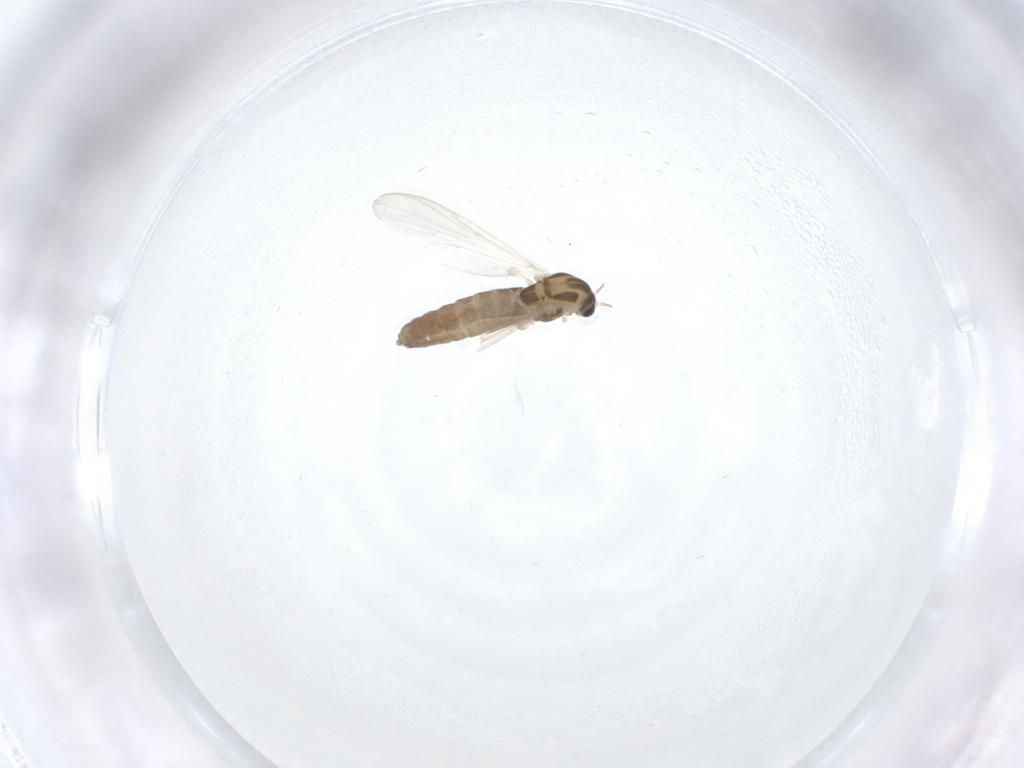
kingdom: Animalia
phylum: Arthropoda
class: Insecta
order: Diptera
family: Chironomidae
